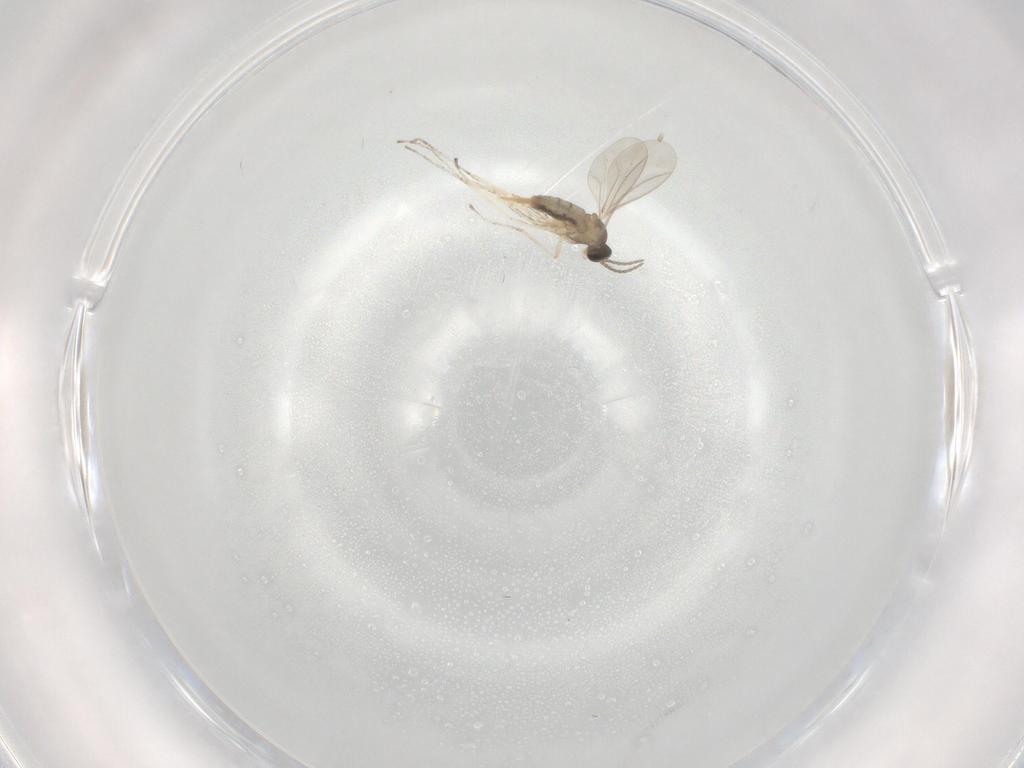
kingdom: Animalia
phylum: Arthropoda
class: Insecta
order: Diptera
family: Cecidomyiidae
